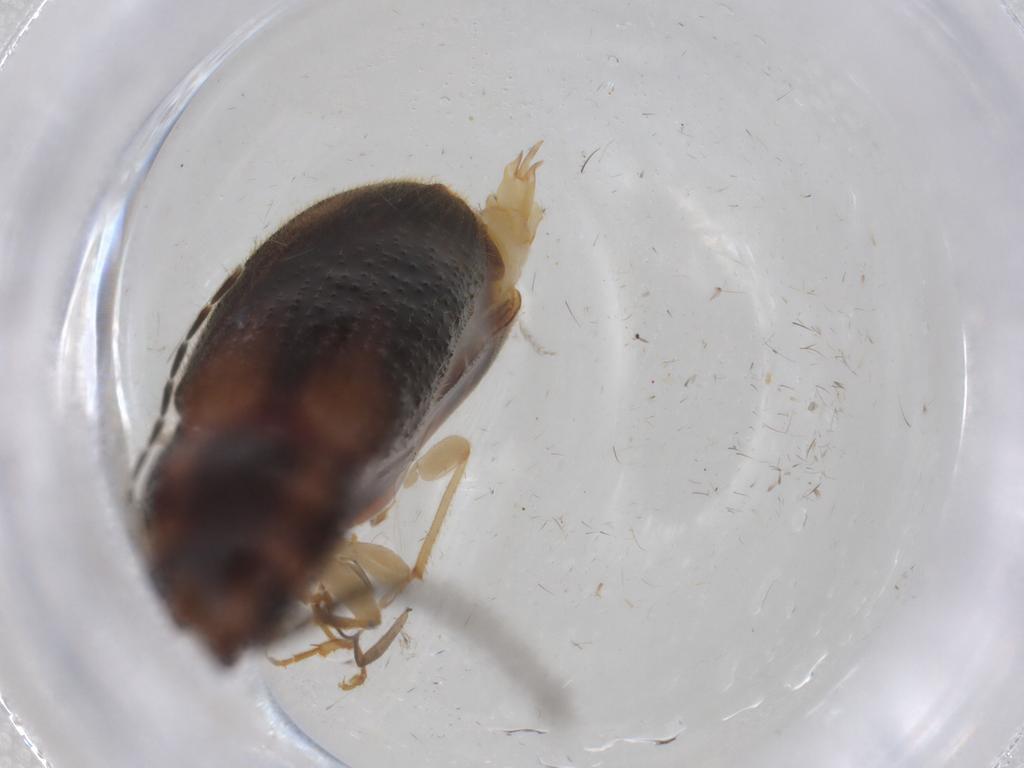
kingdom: Animalia
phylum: Arthropoda
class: Insecta
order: Coleoptera
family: Elateridae
